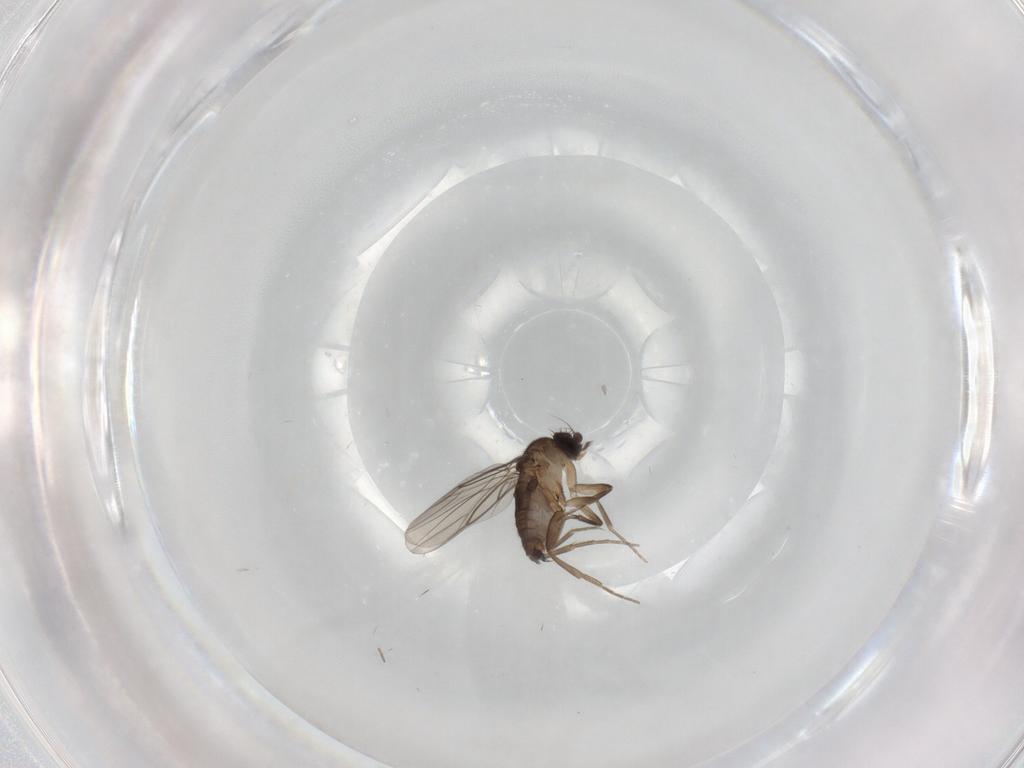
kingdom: Animalia
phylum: Arthropoda
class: Insecta
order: Diptera
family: Phoridae
